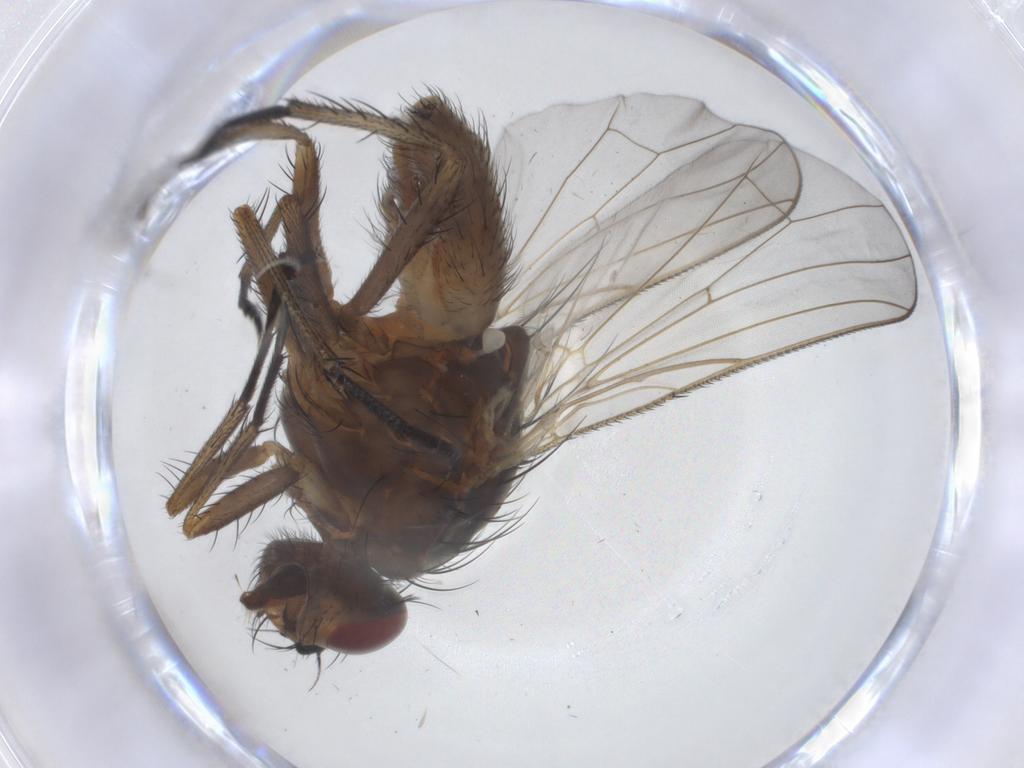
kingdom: Animalia
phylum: Arthropoda
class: Insecta
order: Diptera
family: Anthomyiidae
